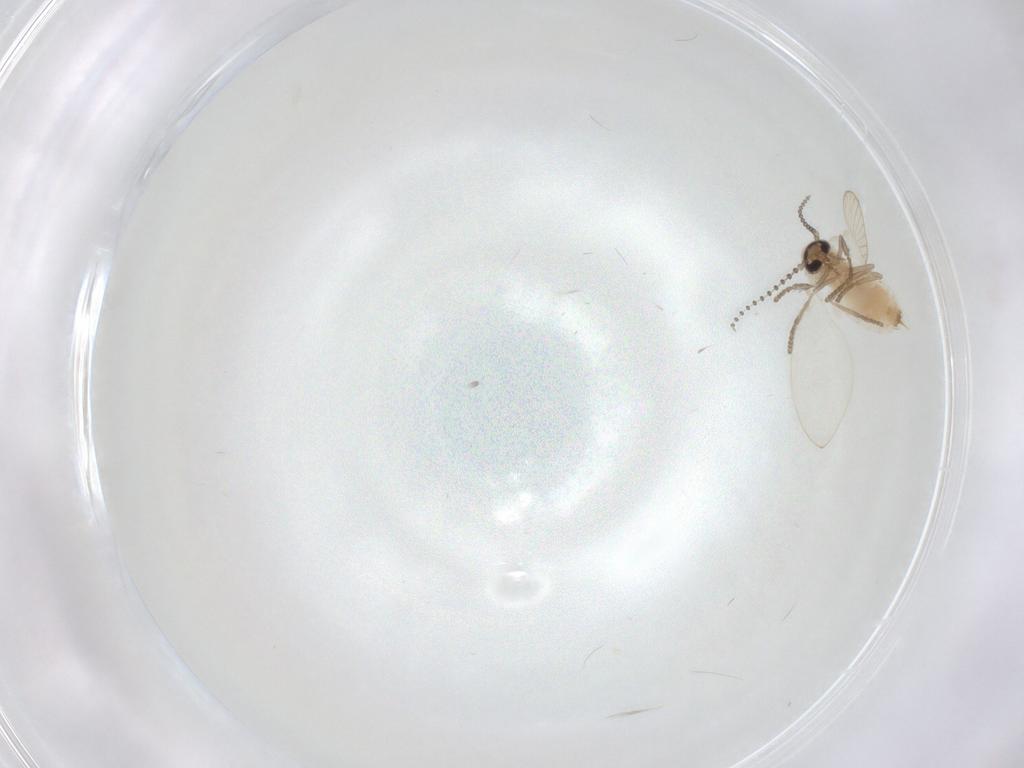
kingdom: Animalia
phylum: Arthropoda
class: Insecta
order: Diptera
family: Psychodidae
